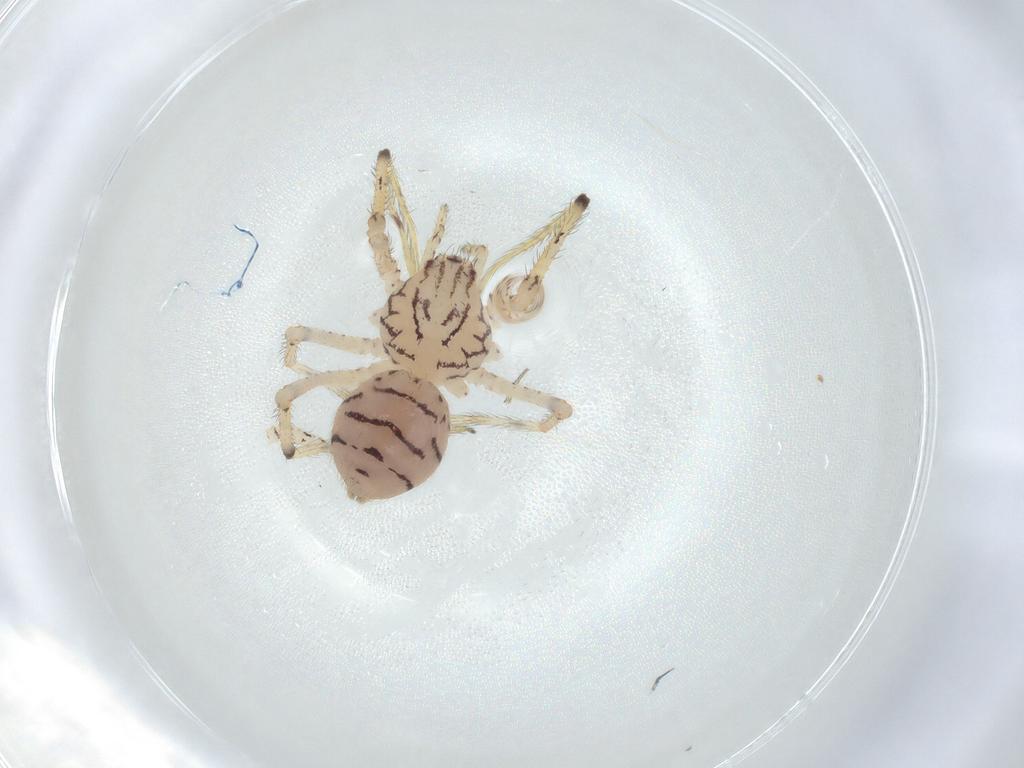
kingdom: Animalia
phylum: Arthropoda
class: Arachnida
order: Araneae
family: Scytodidae
